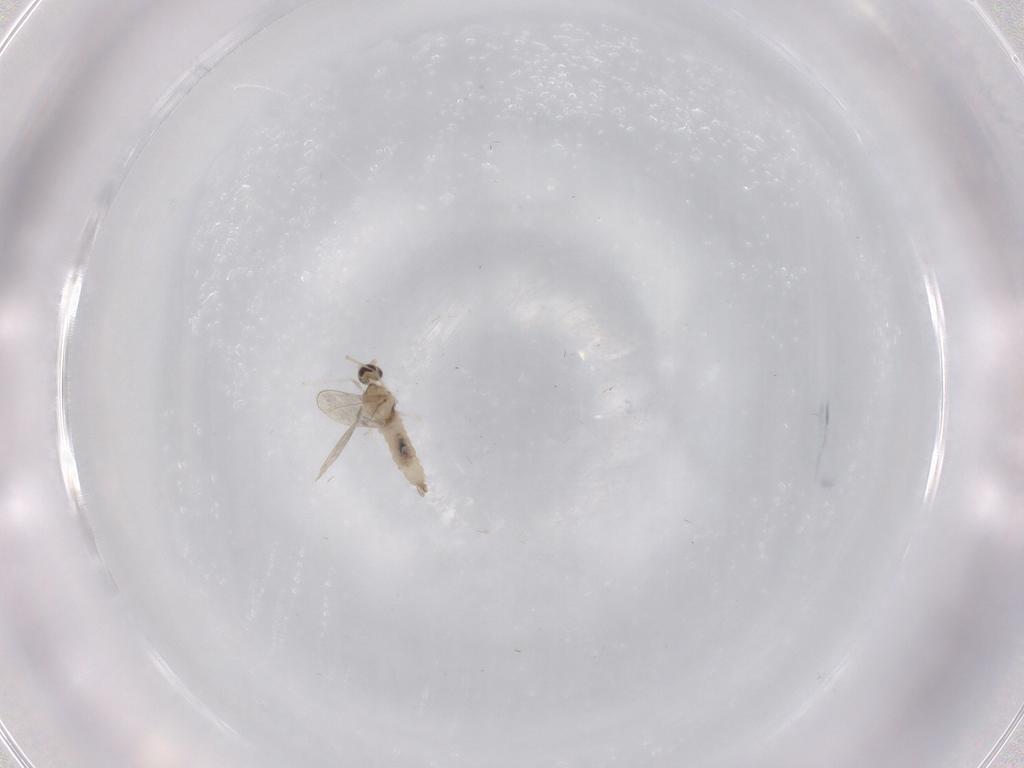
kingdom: Animalia
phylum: Arthropoda
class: Insecta
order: Diptera
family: Cecidomyiidae
